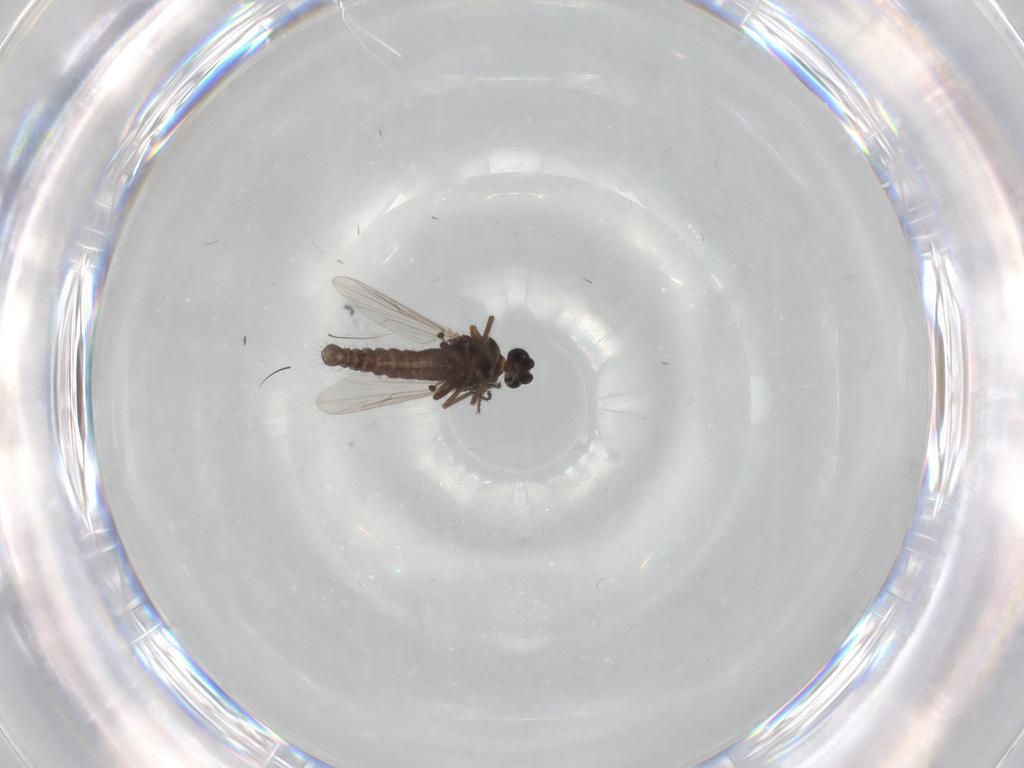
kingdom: Animalia
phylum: Arthropoda
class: Insecta
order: Diptera
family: Ceratopogonidae
